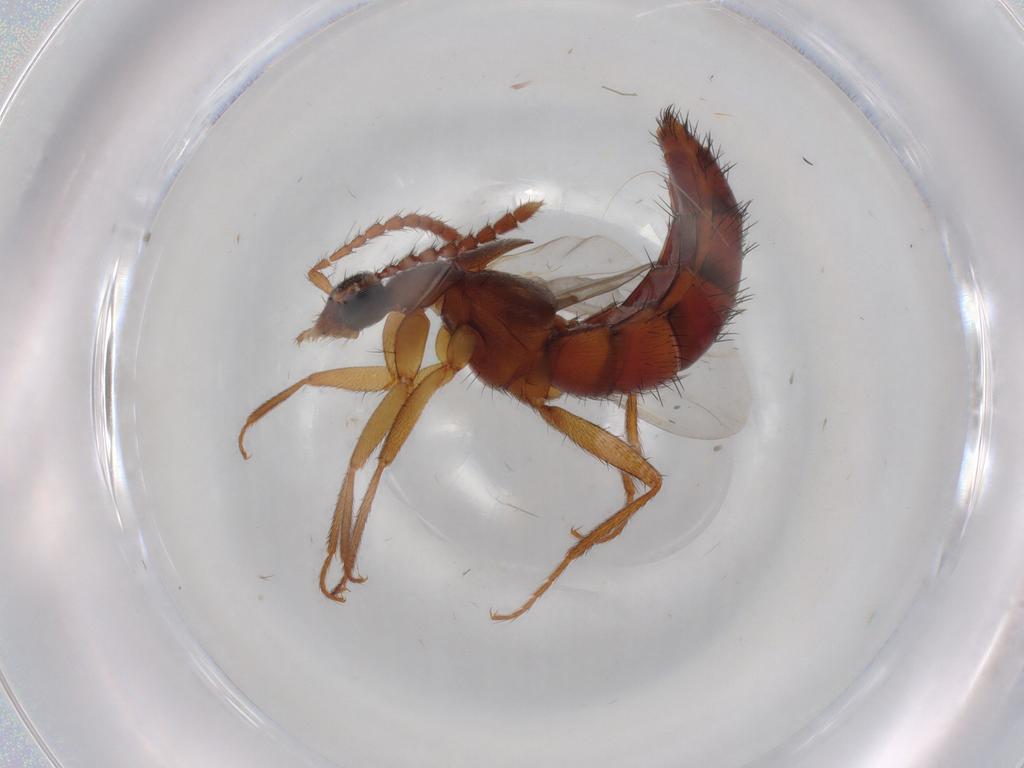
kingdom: Animalia
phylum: Arthropoda
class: Insecta
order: Coleoptera
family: Staphylinidae
